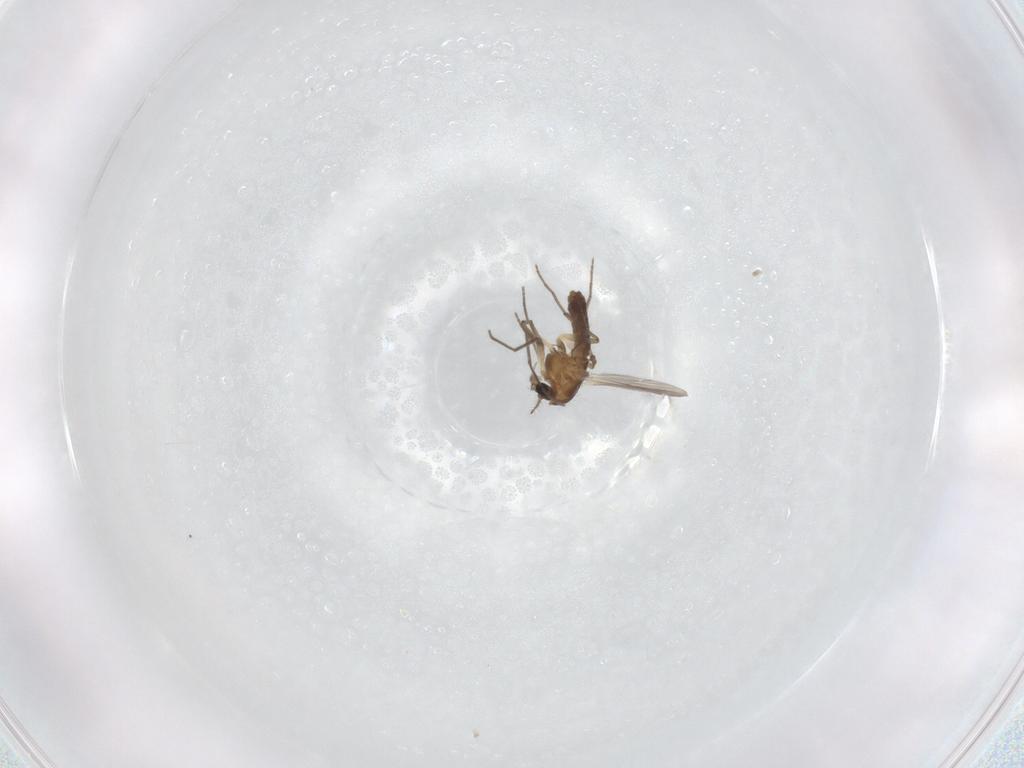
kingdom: Animalia
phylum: Arthropoda
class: Insecta
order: Diptera
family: Chironomidae
